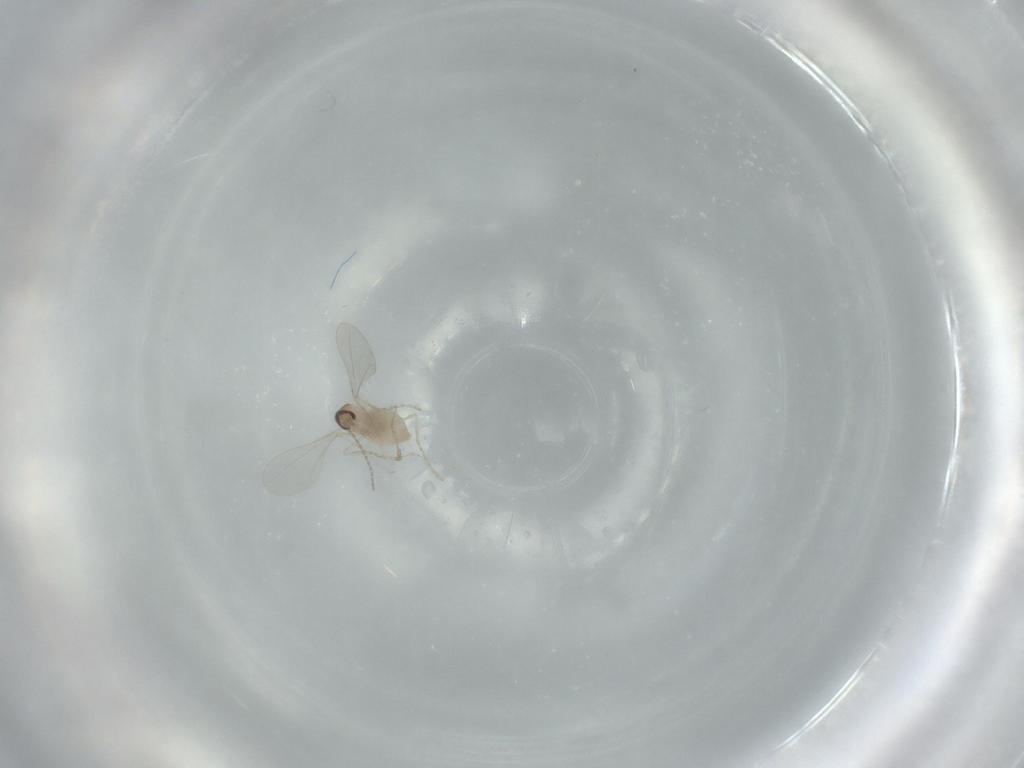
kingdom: Animalia
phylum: Arthropoda
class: Insecta
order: Diptera
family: Cecidomyiidae
